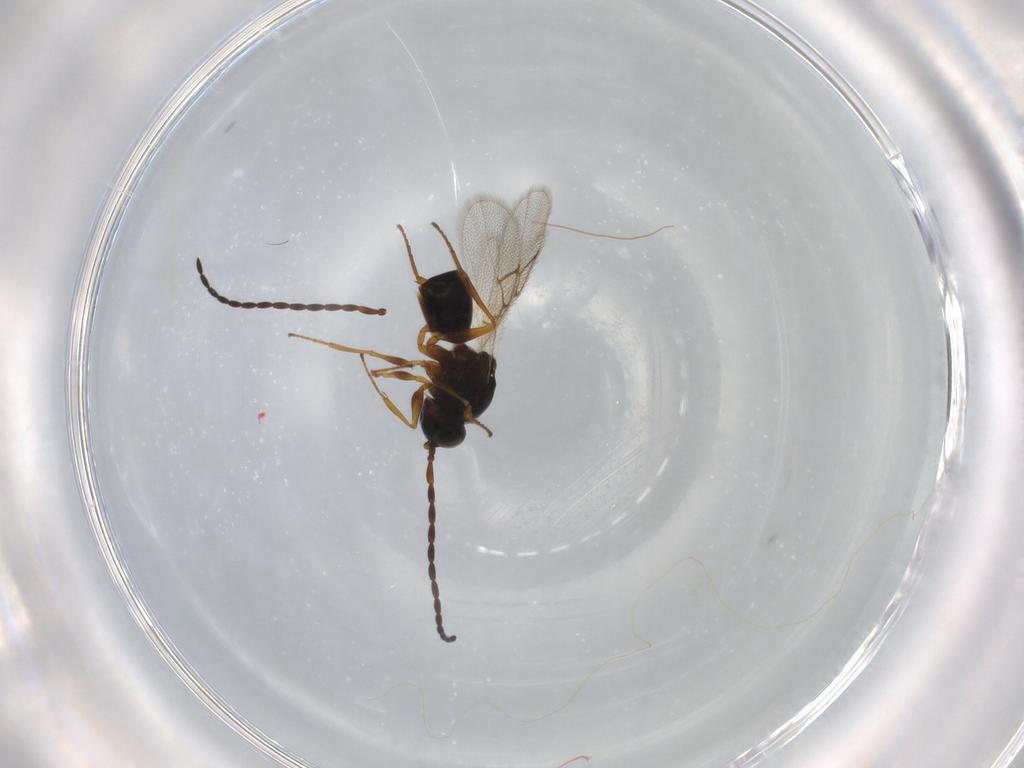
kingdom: Animalia
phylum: Arthropoda
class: Insecta
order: Hymenoptera
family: Figitidae
